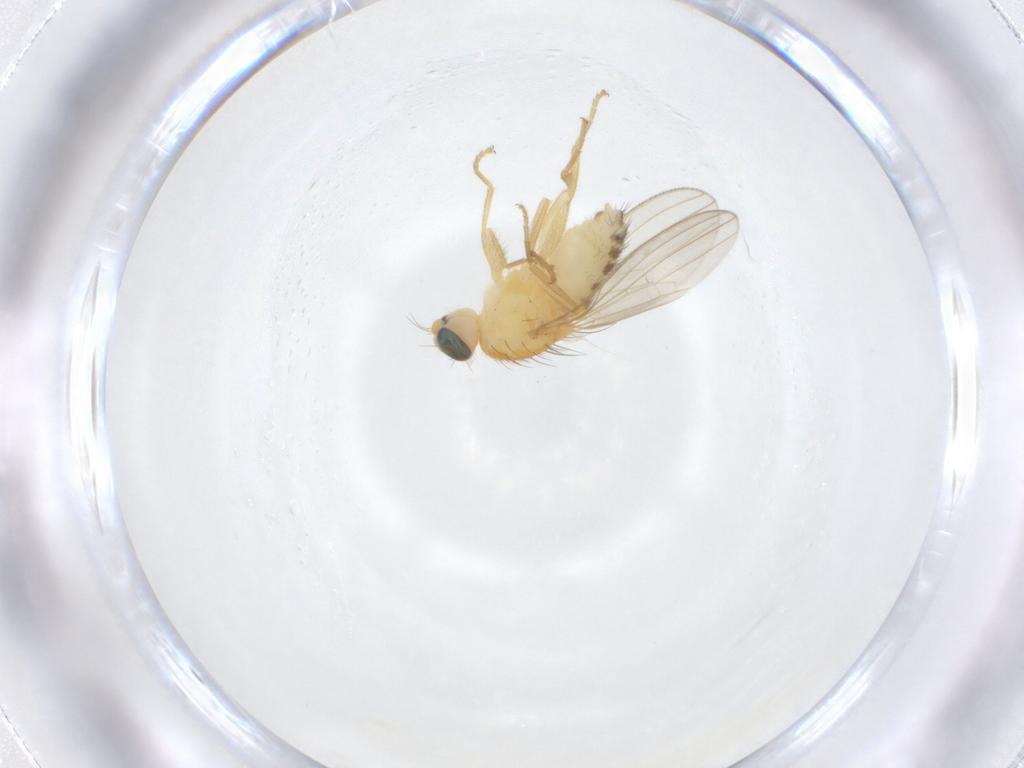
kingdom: Animalia
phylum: Arthropoda
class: Insecta
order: Diptera
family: Chyromyidae
